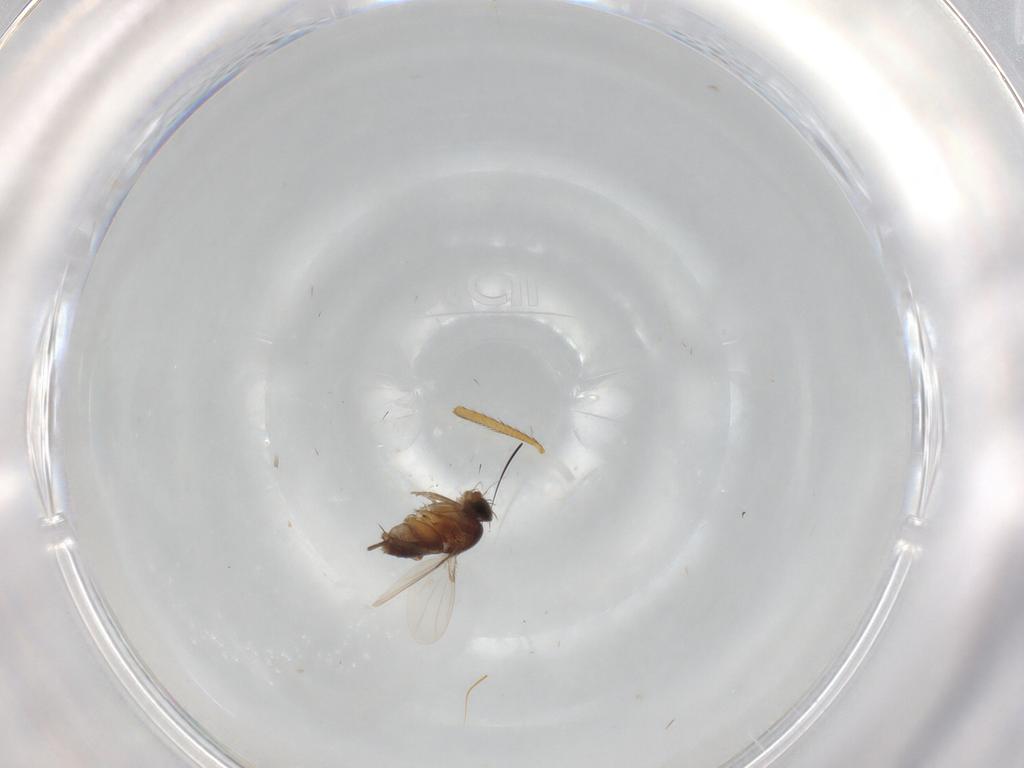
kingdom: Animalia
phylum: Arthropoda
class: Insecta
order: Diptera
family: Phoridae
